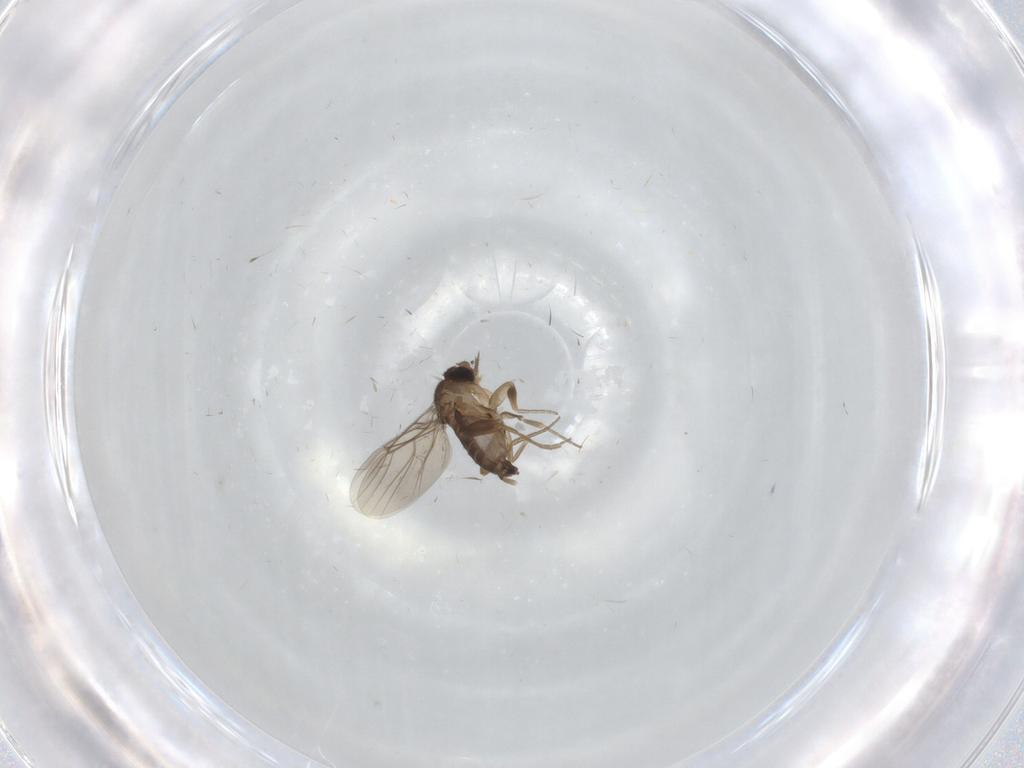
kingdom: Animalia
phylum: Arthropoda
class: Insecta
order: Diptera
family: Phoridae
